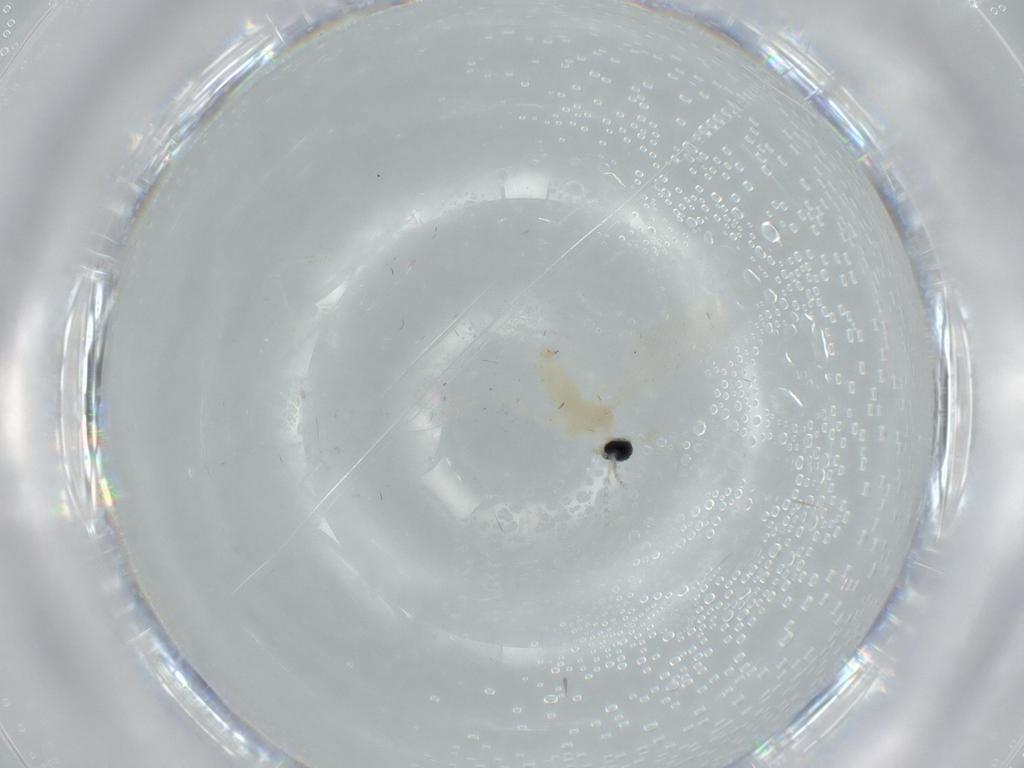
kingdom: Animalia
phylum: Arthropoda
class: Insecta
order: Diptera
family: Cecidomyiidae
